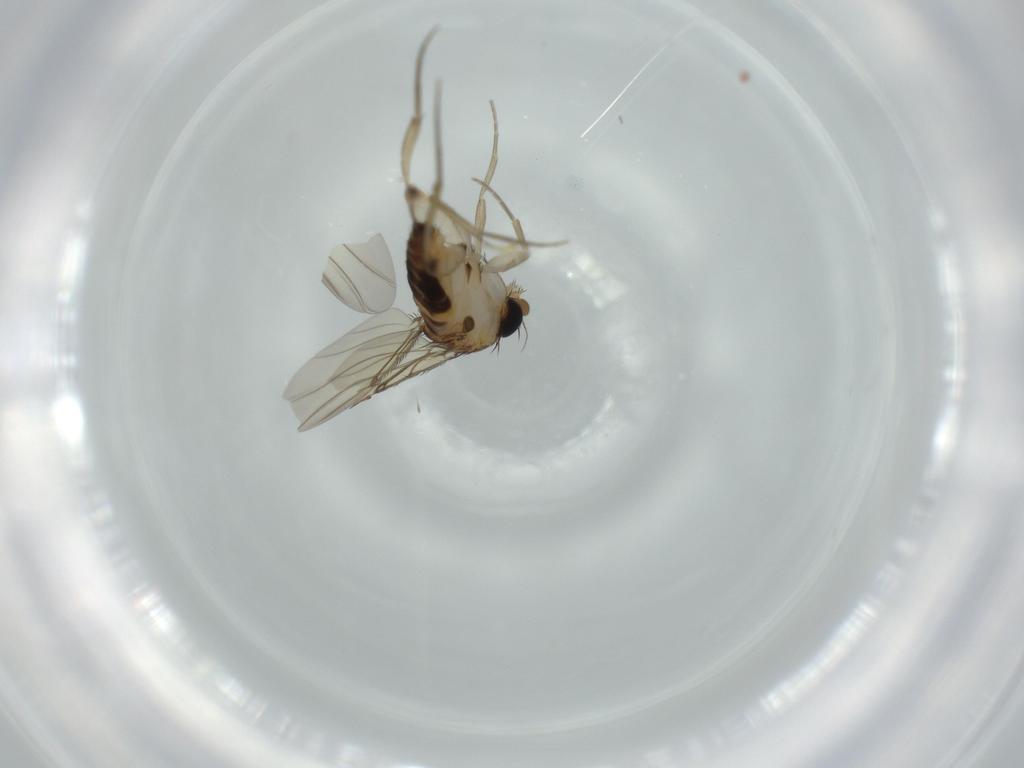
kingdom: Animalia
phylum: Arthropoda
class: Insecta
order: Diptera
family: Phoridae
